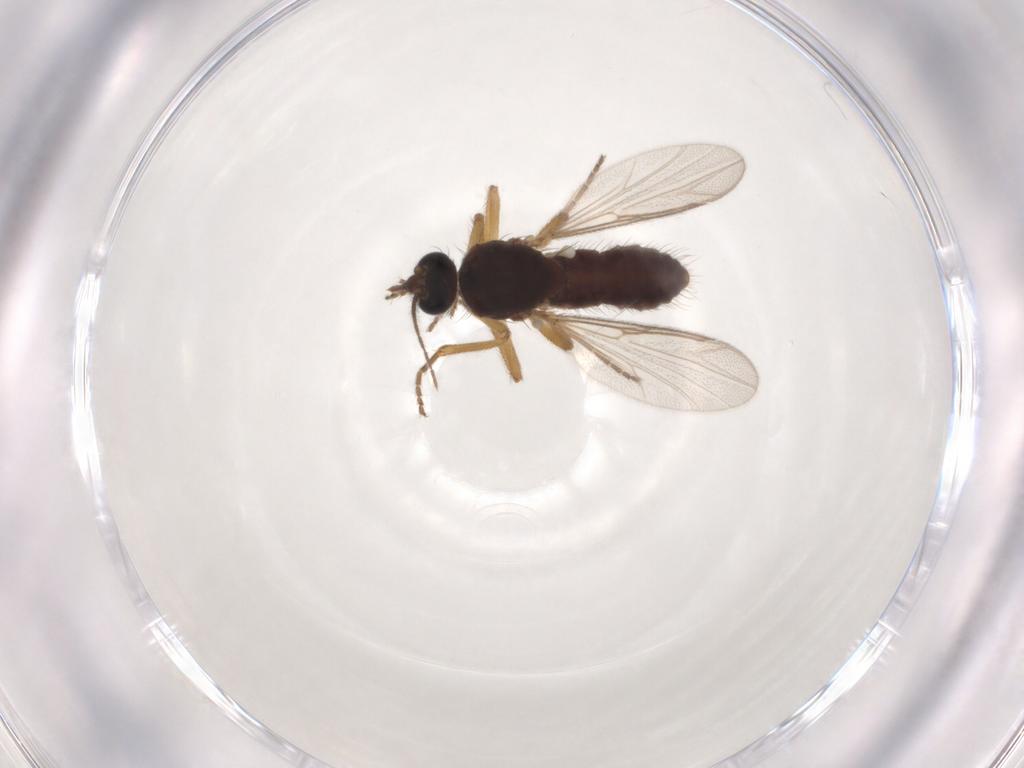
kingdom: Animalia
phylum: Arthropoda
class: Insecta
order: Diptera
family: Ceratopogonidae
